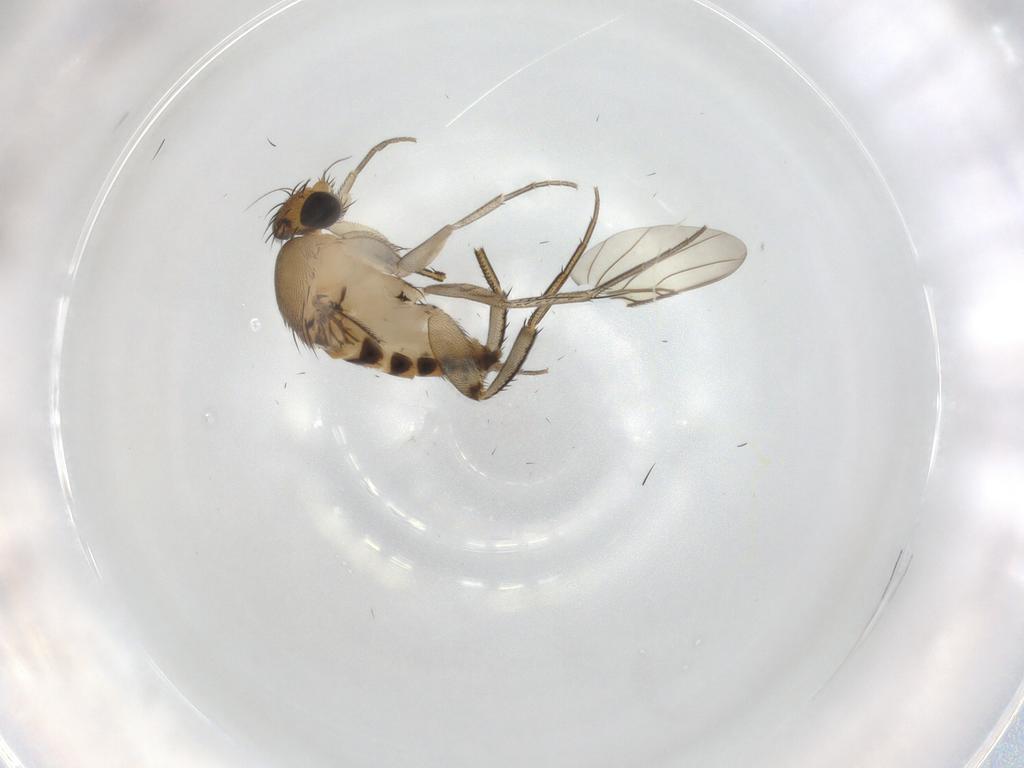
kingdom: Animalia
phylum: Arthropoda
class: Insecta
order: Diptera
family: Phoridae
